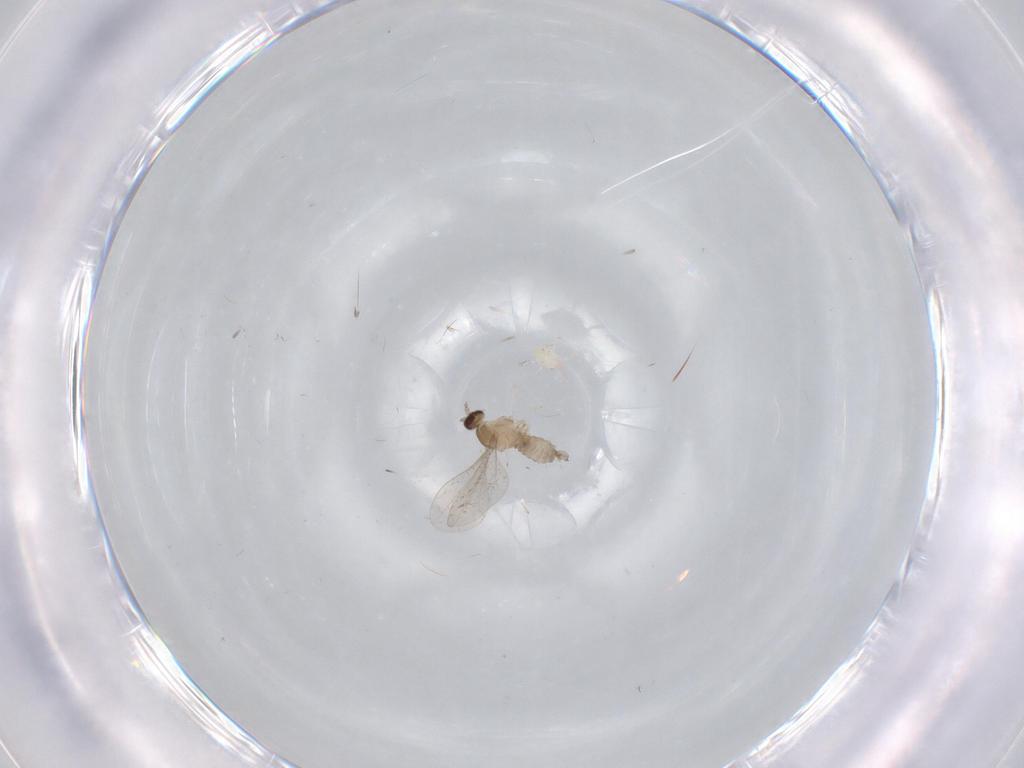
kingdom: Animalia
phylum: Arthropoda
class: Insecta
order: Diptera
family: Cecidomyiidae
